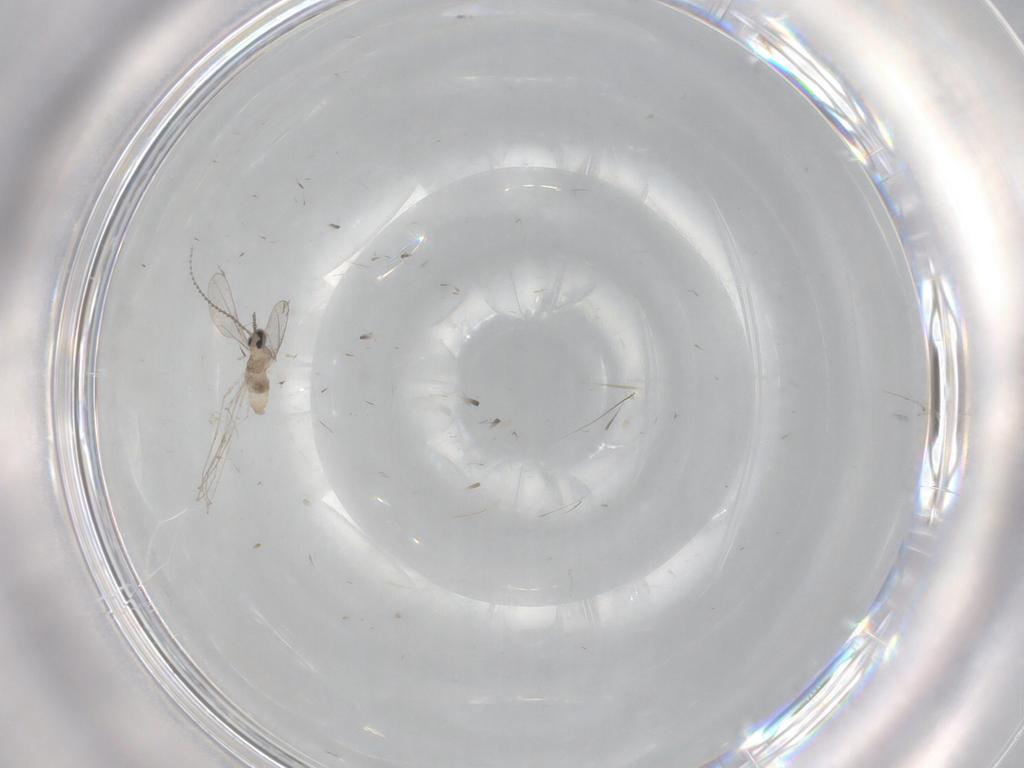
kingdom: Animalia
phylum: Arthropoda
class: Insecta
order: Diptera
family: Cecidomyiidae
